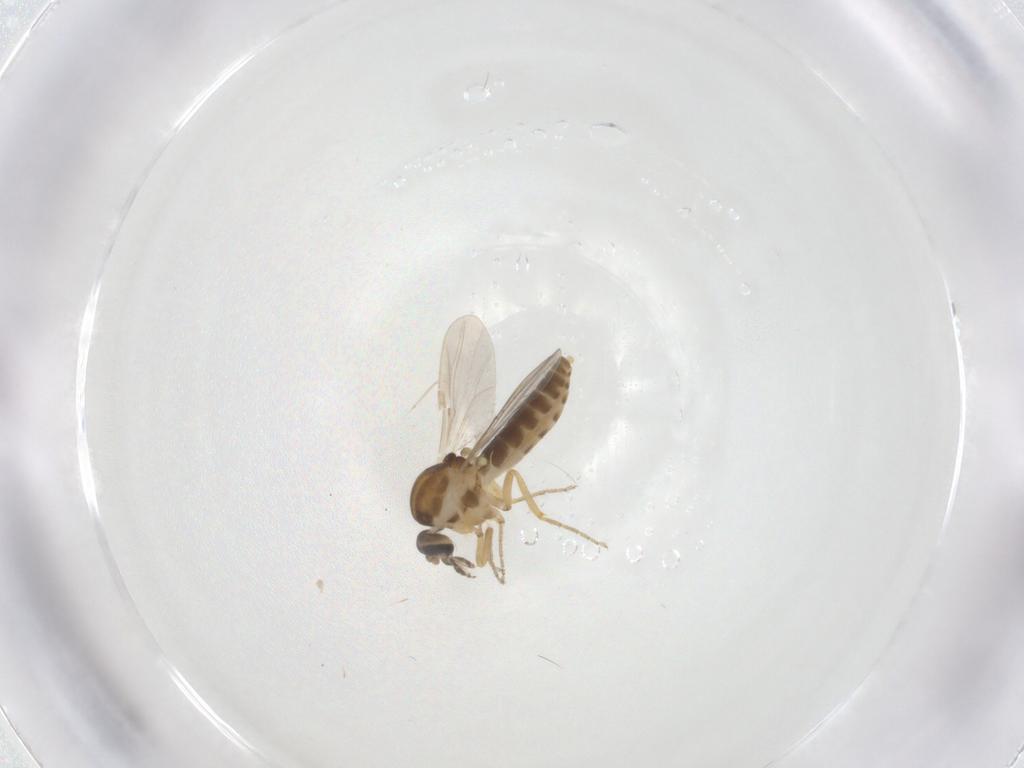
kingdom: Animalia
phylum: Arthropoda
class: Insecta
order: Diptera
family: Ceratopogonidae
